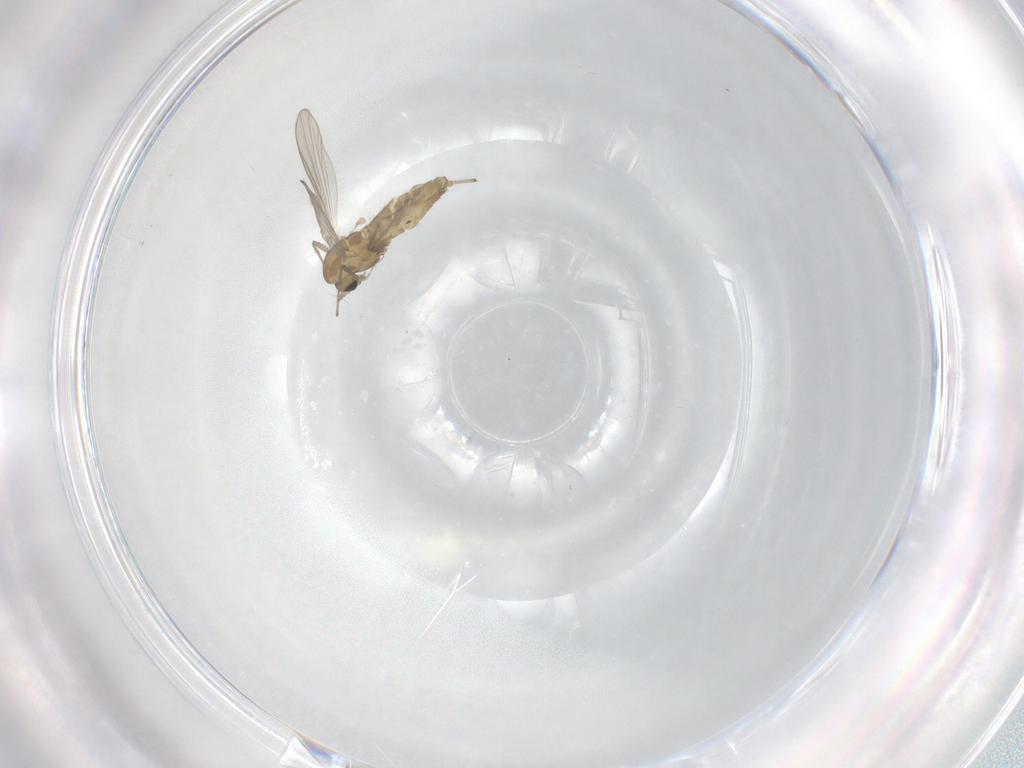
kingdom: Animalia
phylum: Arthropoda
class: Insecta
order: Diptera
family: Chironomidae
